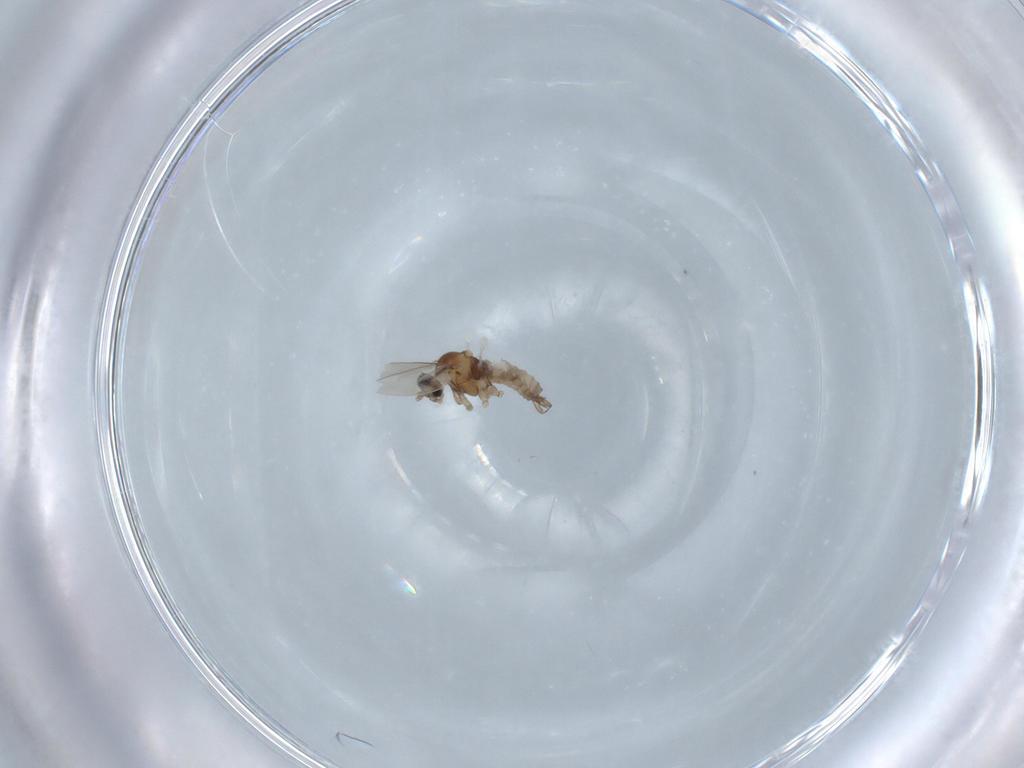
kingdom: Animalia
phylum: Arthropoda
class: Insecta
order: Diptera
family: Cecidomyiidae
